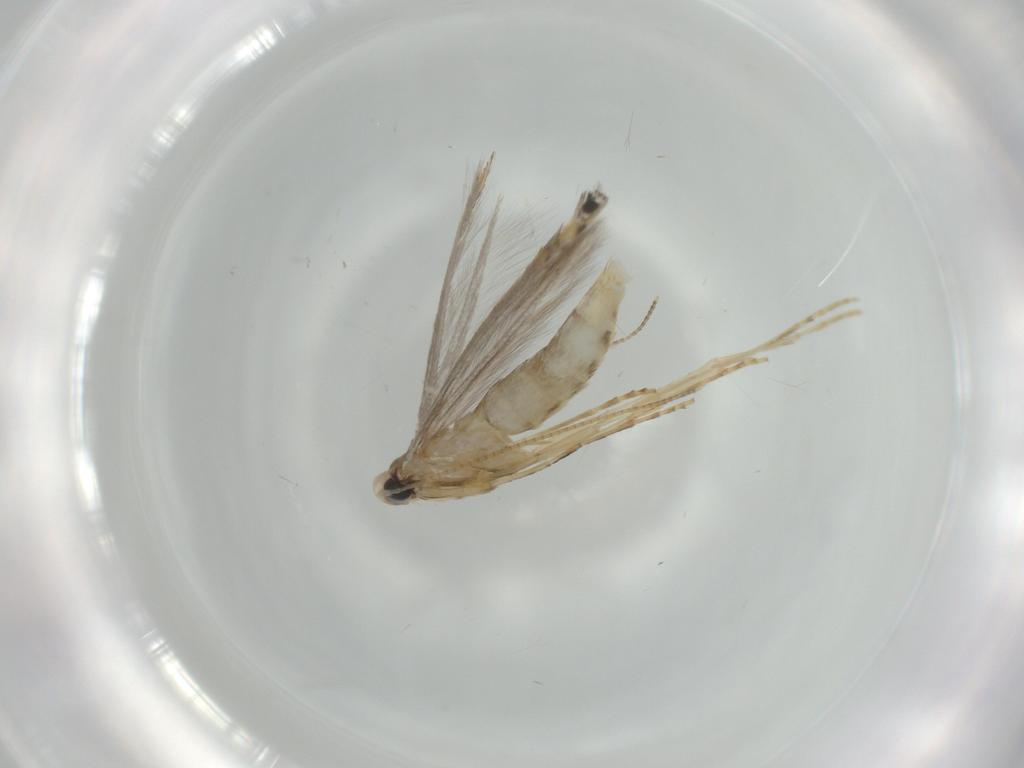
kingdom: Animalia
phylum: Arthropoda
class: Insecta
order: Lepidoptera
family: Gracillariidae
